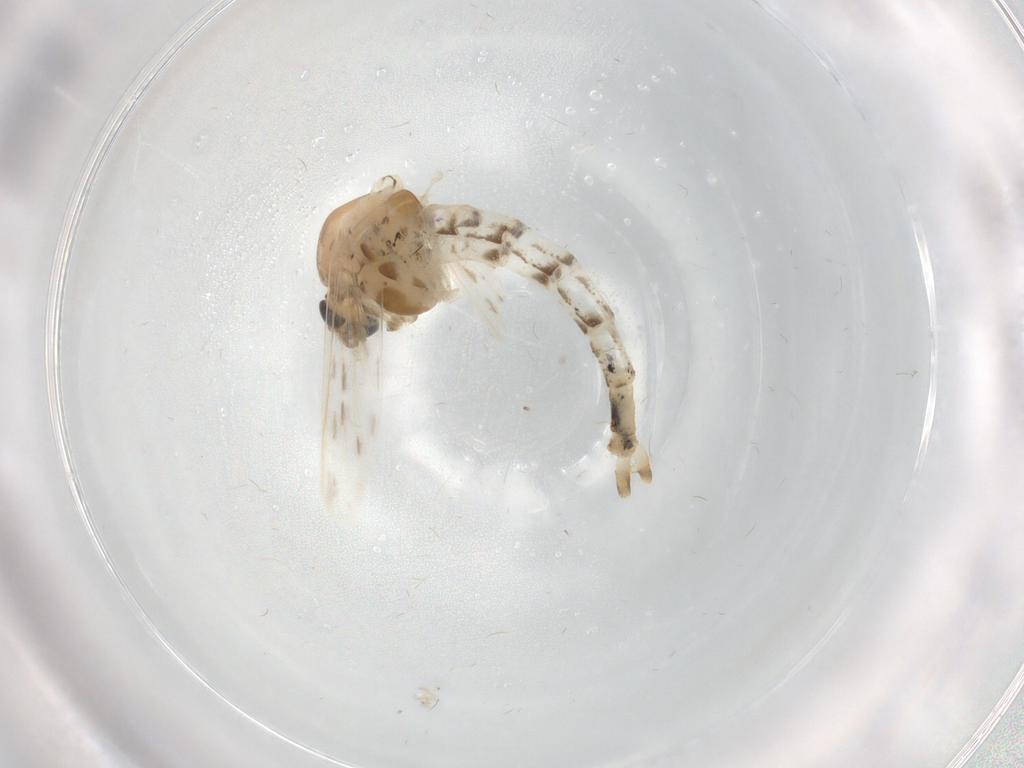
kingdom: Animalia
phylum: Arthropoda
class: Insecta
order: Diptera
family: Chaoboridae
